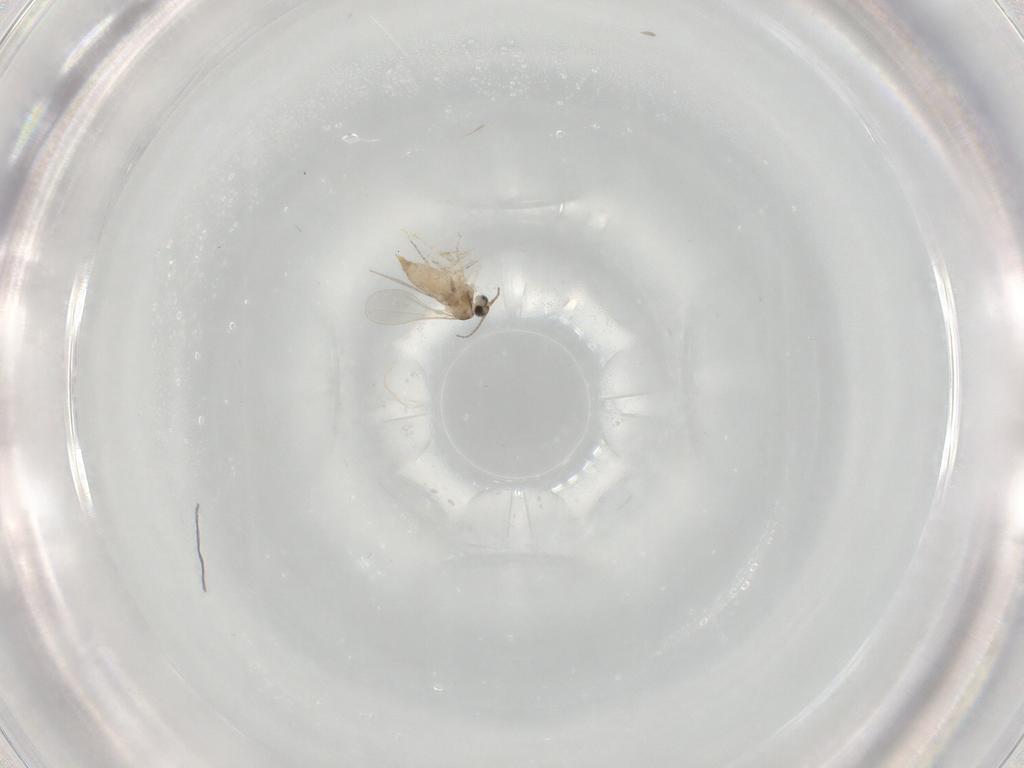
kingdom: Animalia
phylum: Arthropoda
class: Insecta
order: Diptera
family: Sciaridae
